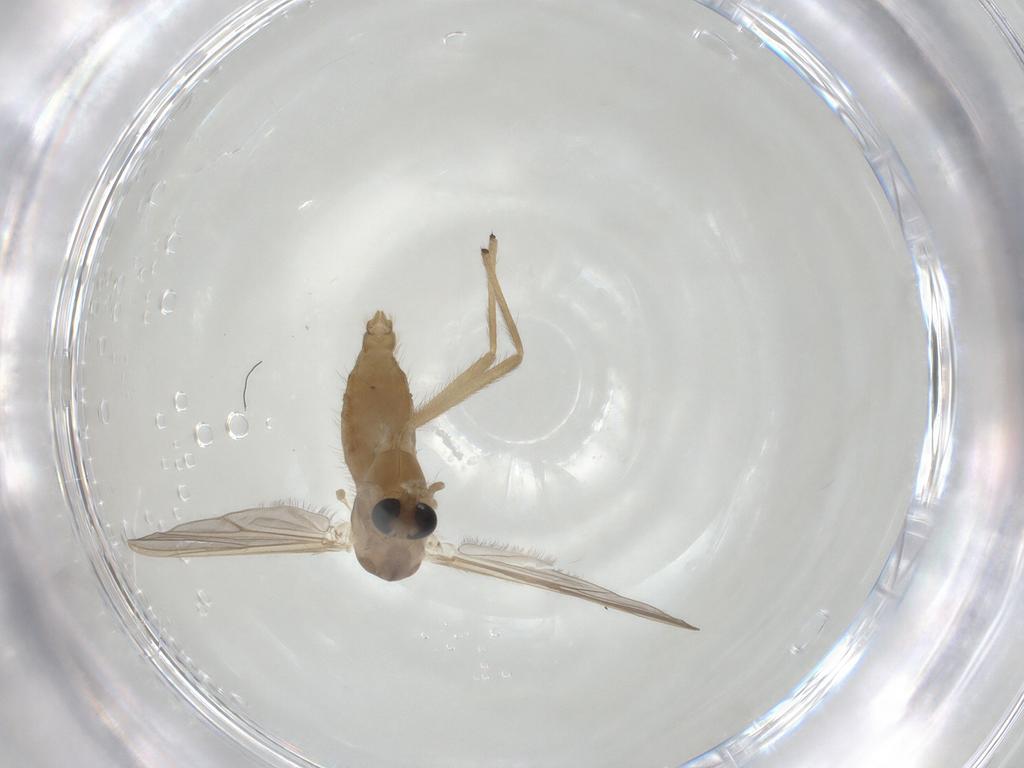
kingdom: Animalia
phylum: Arthropoda
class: Insecta
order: Diptera
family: Chironomidae
